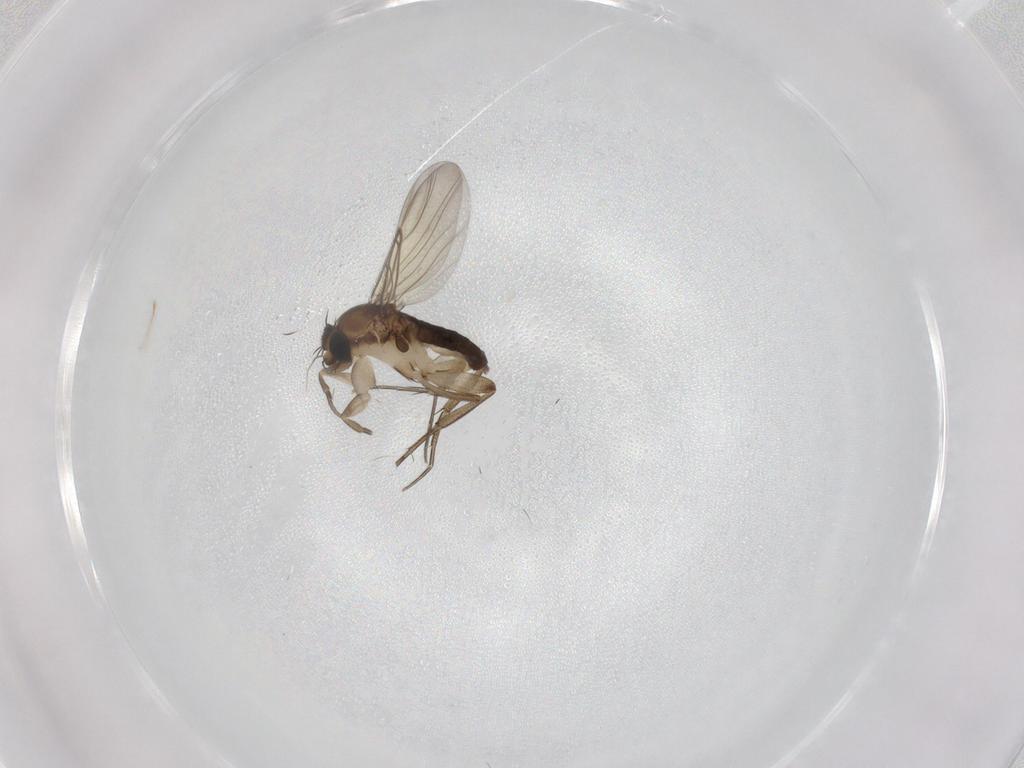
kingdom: Animalia
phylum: Arthropoda
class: Insecta
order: Diptera
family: Phoridae
